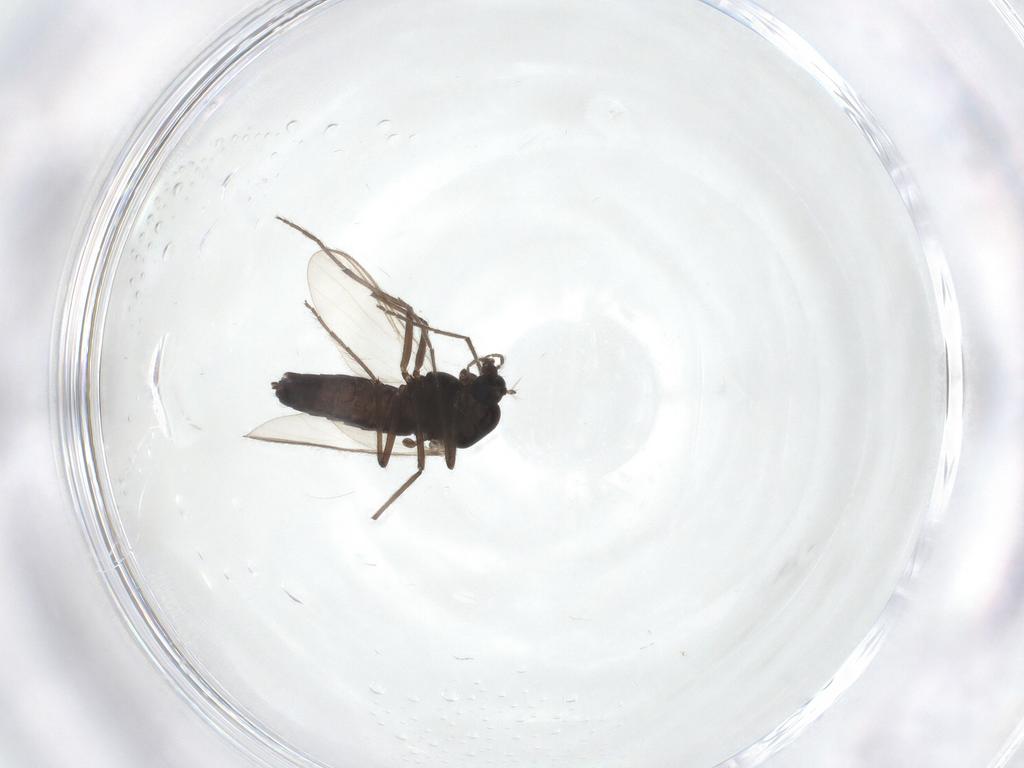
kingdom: Animalia
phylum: Arthropoda
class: Insecta
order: Diptera
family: Chironomidae
